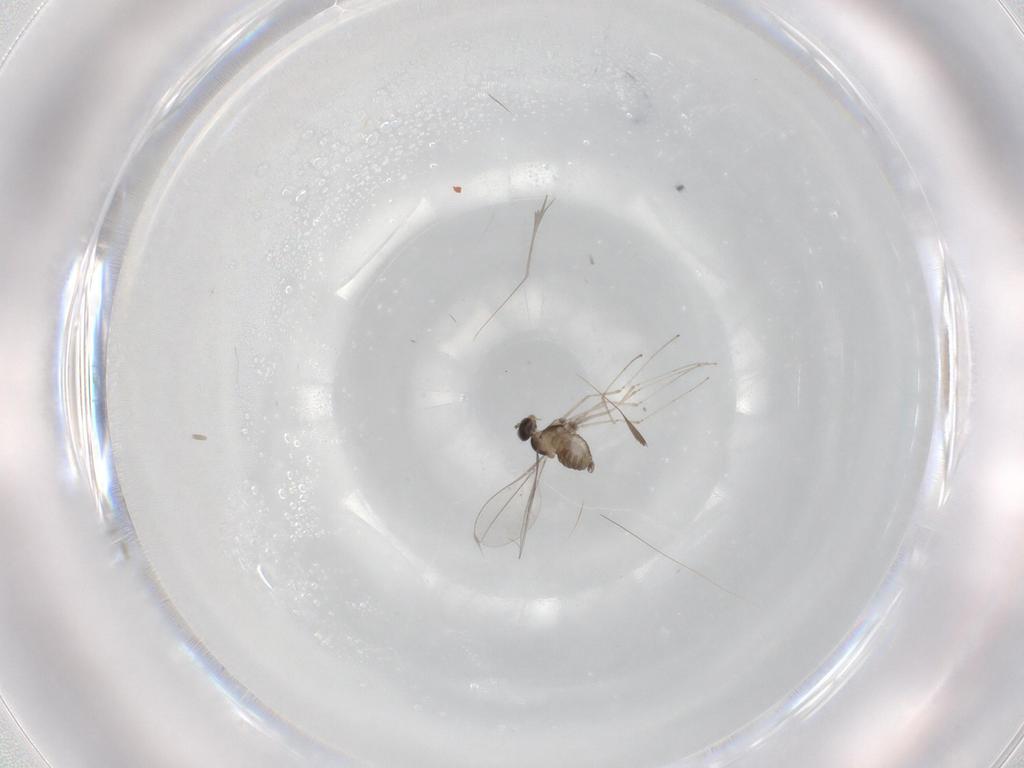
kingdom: Animalia
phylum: Arthropoda
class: Insecta
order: Diptera
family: Cecidomyiidae
